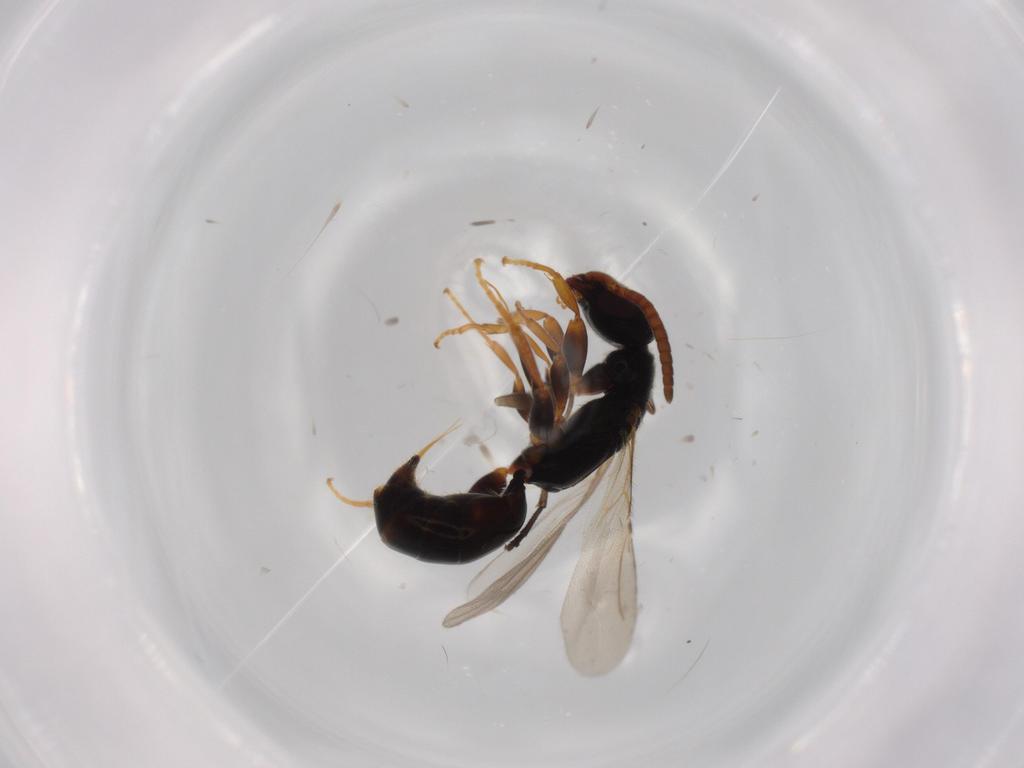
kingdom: Animalia
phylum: Arthropoda
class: Insecta
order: Hymenoptera
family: Bethylidae
